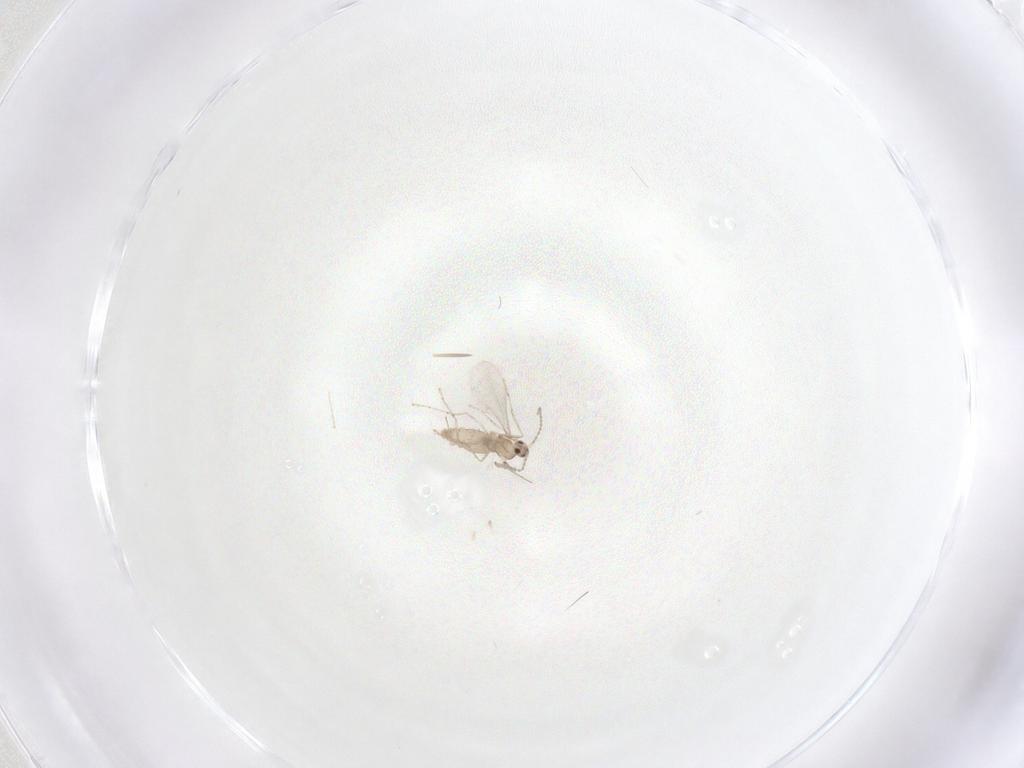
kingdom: Animalia
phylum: Arthropoda
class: Insecta
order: Diptera
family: Cecidomyiidae
